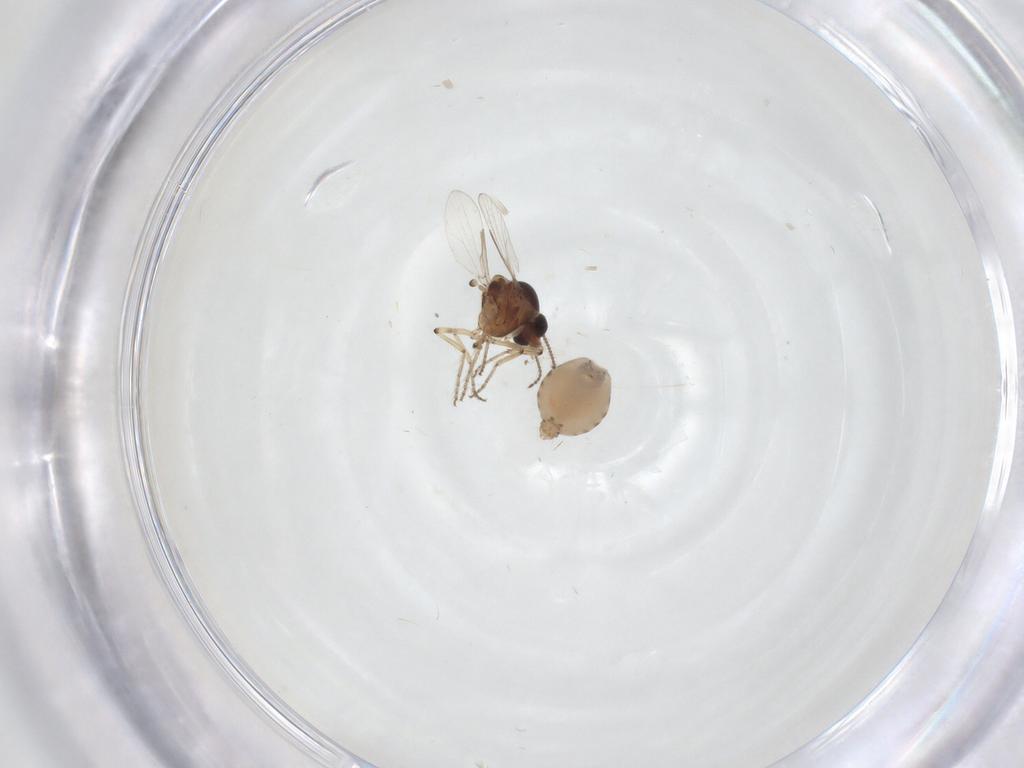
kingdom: Animalia
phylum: Arthropoda
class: Insecta
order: Diptera
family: Ceratopogonidae
